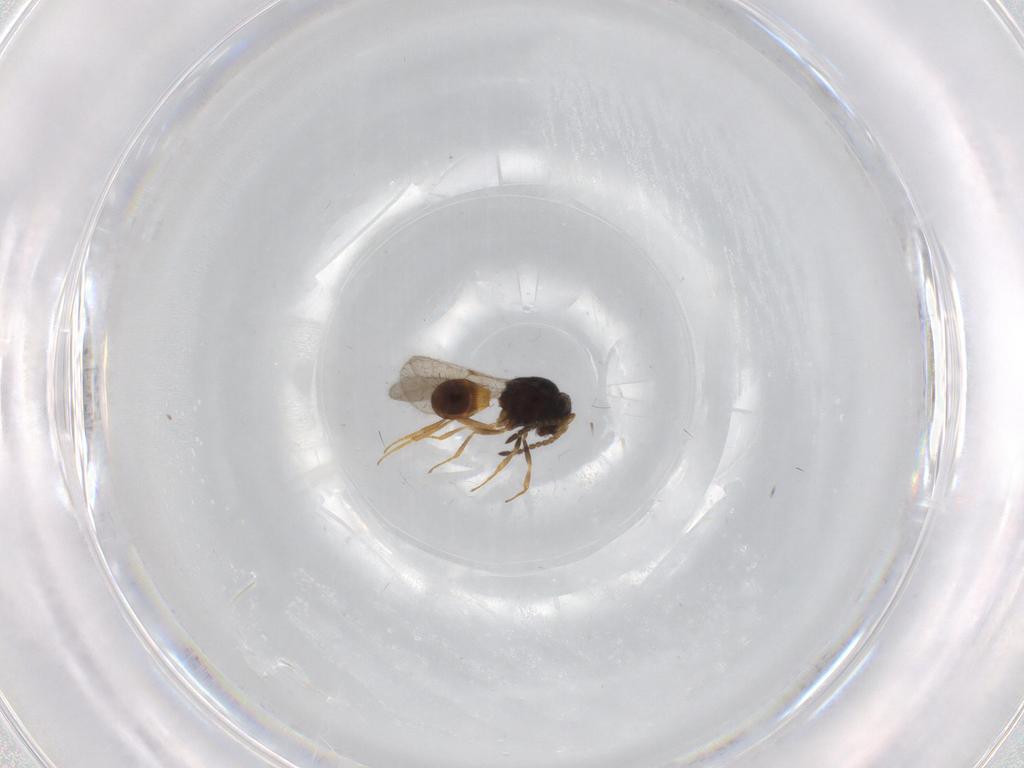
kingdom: Animalia
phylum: Arthropoda
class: Insecta
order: Hymenoptera
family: Scelionidae
